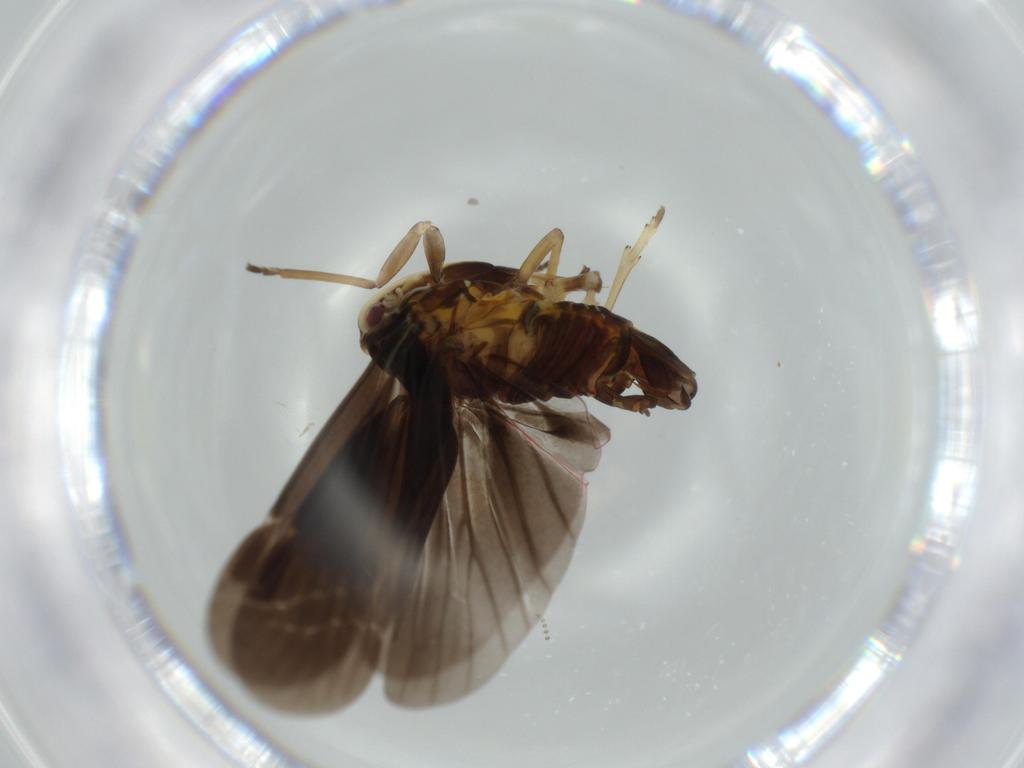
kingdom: Animalia
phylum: Arthropoda
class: Insecta
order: Hemiptera
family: Derbidae
